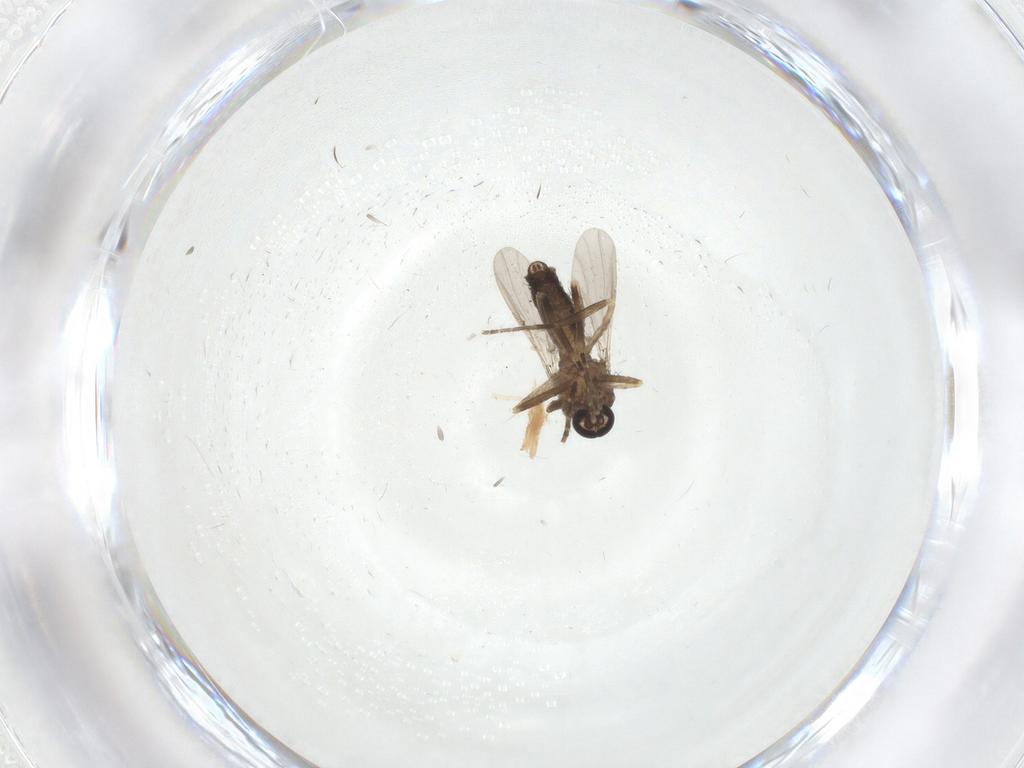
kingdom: Animalia
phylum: Arthropoda
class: Insecta
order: Diptera
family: Ceratopogonidae
